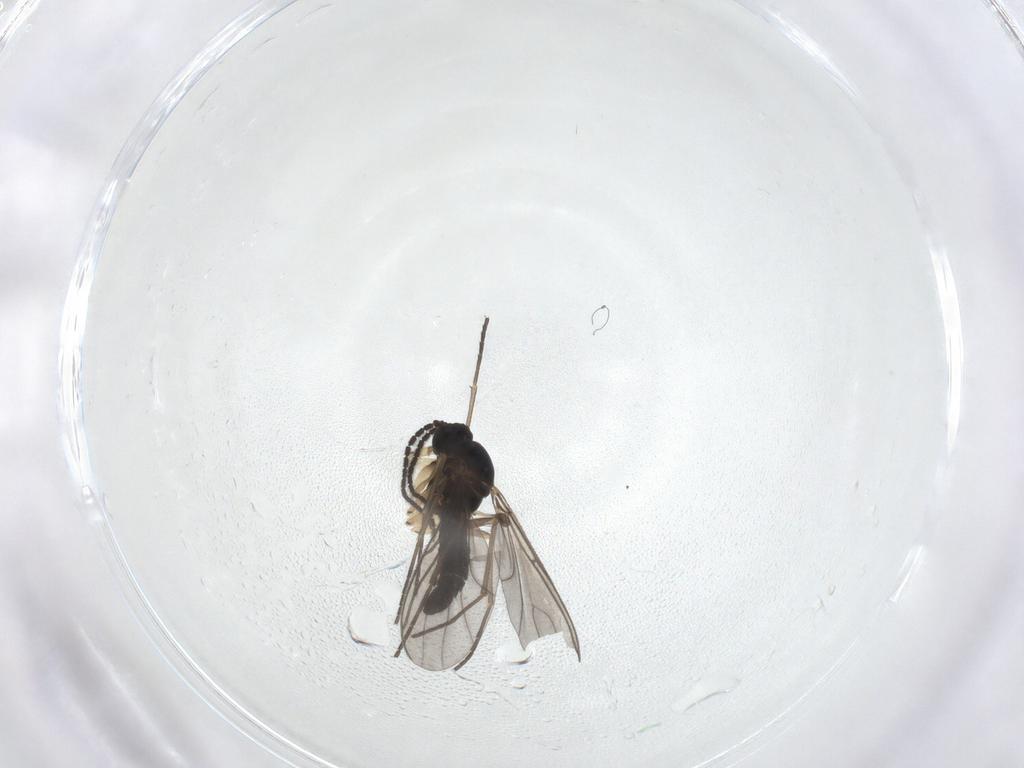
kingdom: Animalia
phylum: Arthropoda
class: Insecta
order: Diptera
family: Sciaridae
